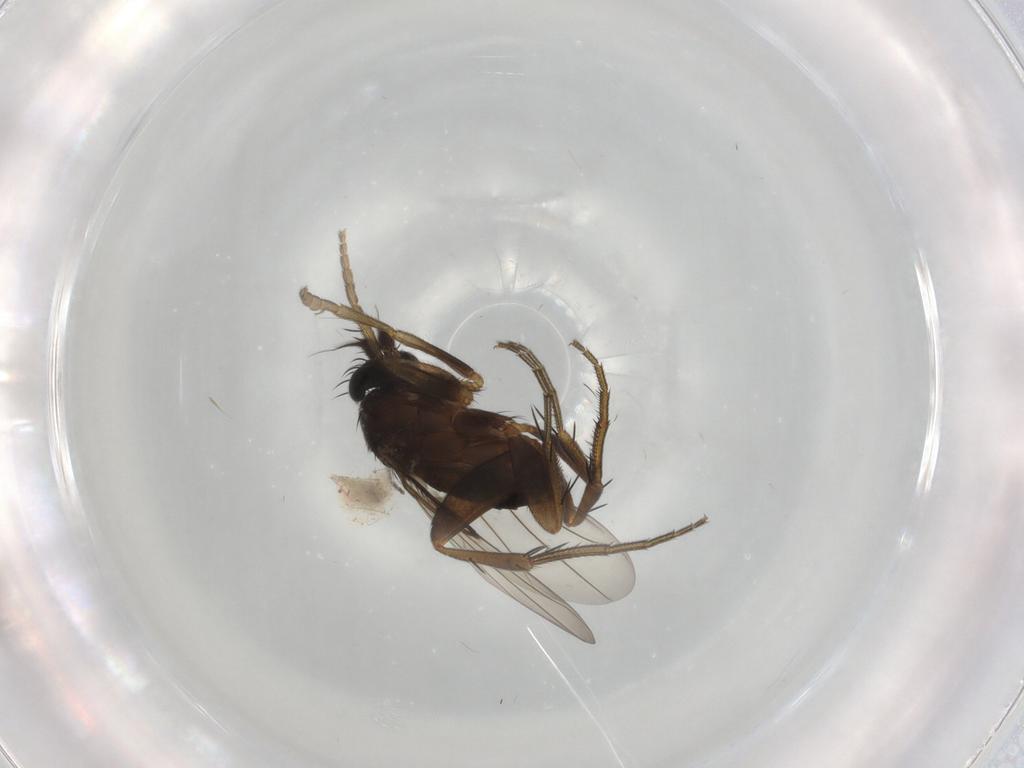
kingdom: Animalia
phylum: Arthropoda
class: Insecta
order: Diptera
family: Phoridae
